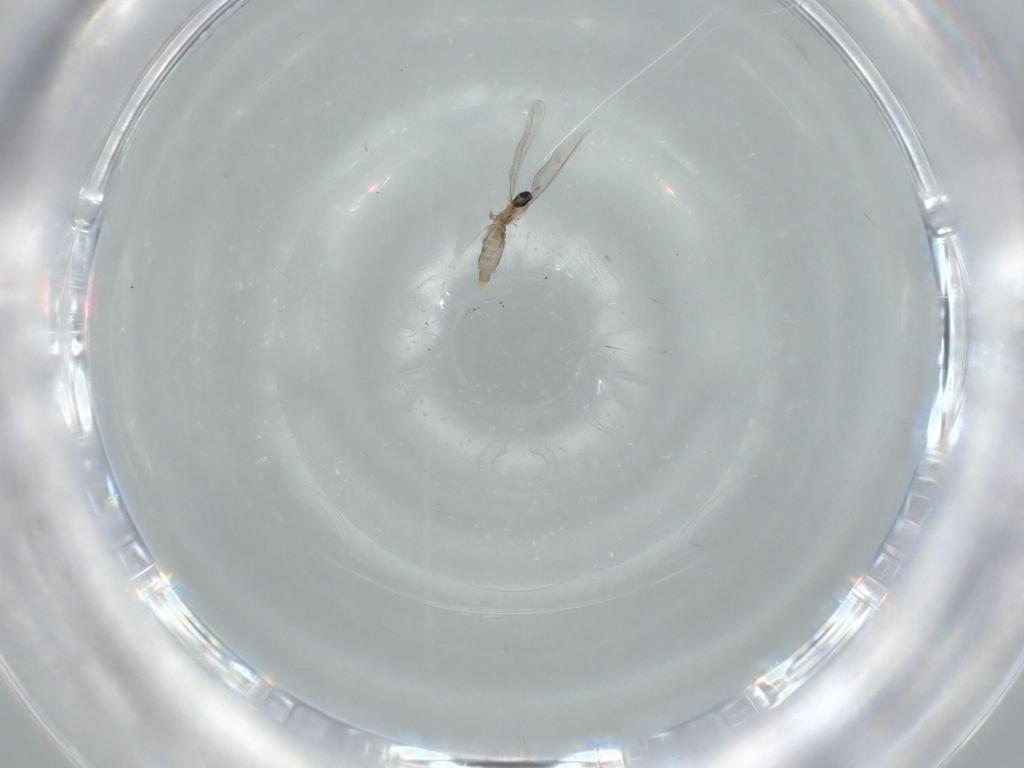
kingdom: Animalia
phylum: Arthropoda
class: Insecta
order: Diptera
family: Cecidomyiidae
